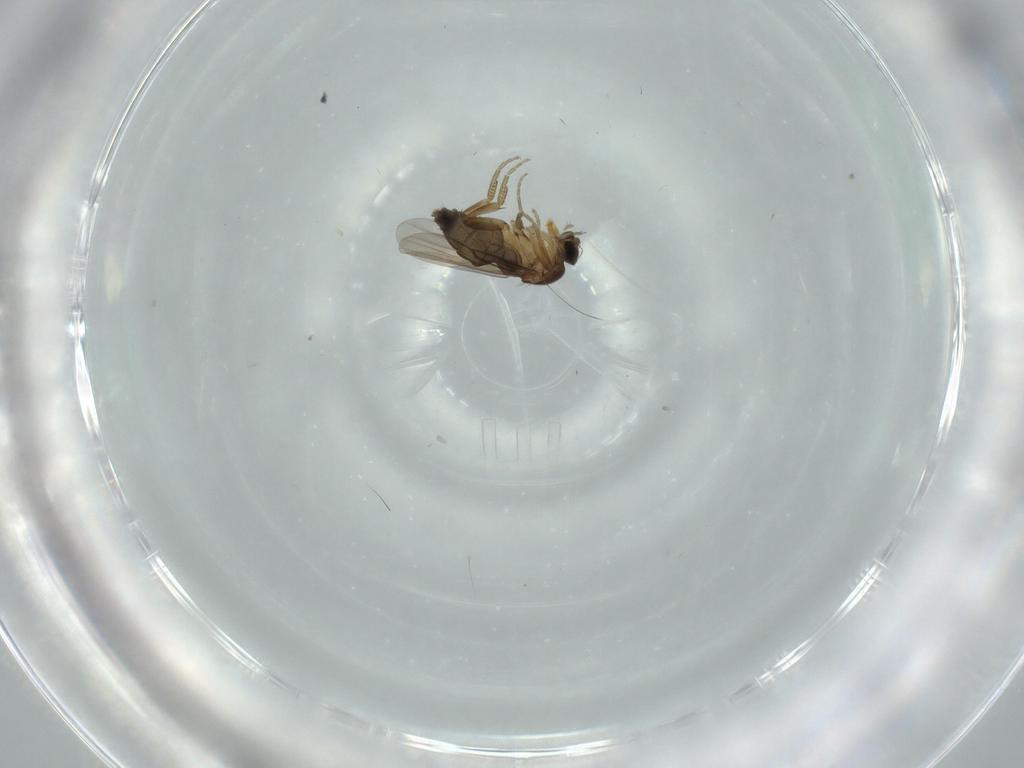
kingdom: Animalia
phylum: Arthropoda
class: Insecta
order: Diptera
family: Phoridae
